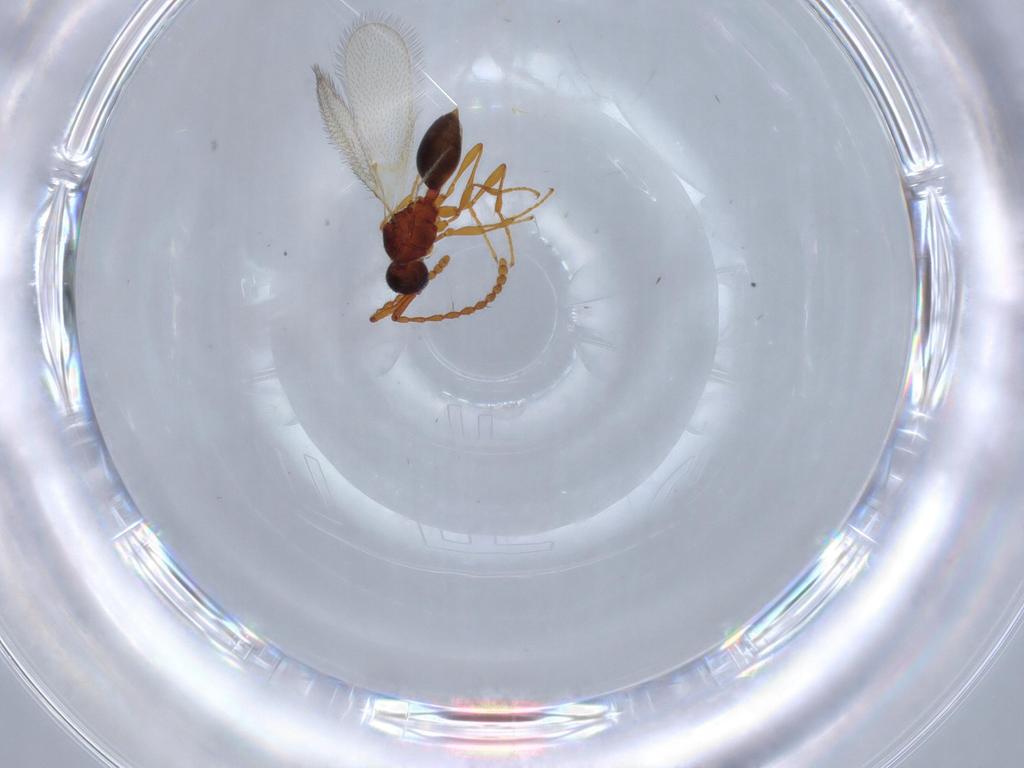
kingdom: Animalia
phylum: Arthropoda
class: Insecta
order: Hymenoptera
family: Diapriidae
